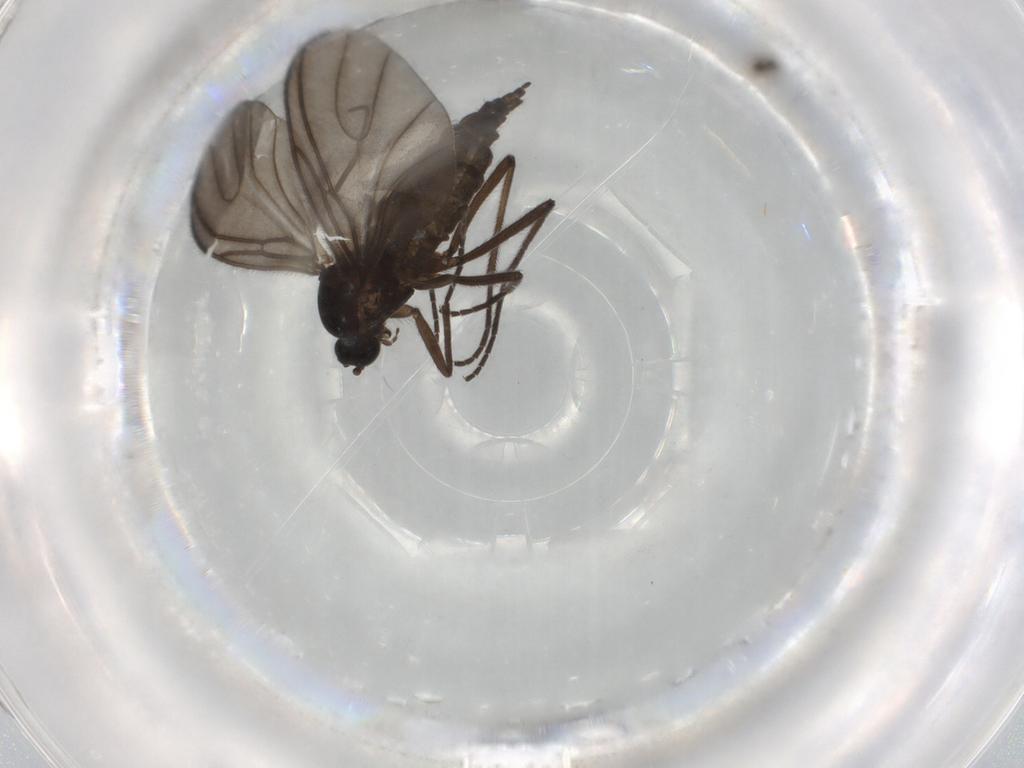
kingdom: Animalia
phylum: Arthropoda
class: Insecta
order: Diptera
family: Sciaridae
